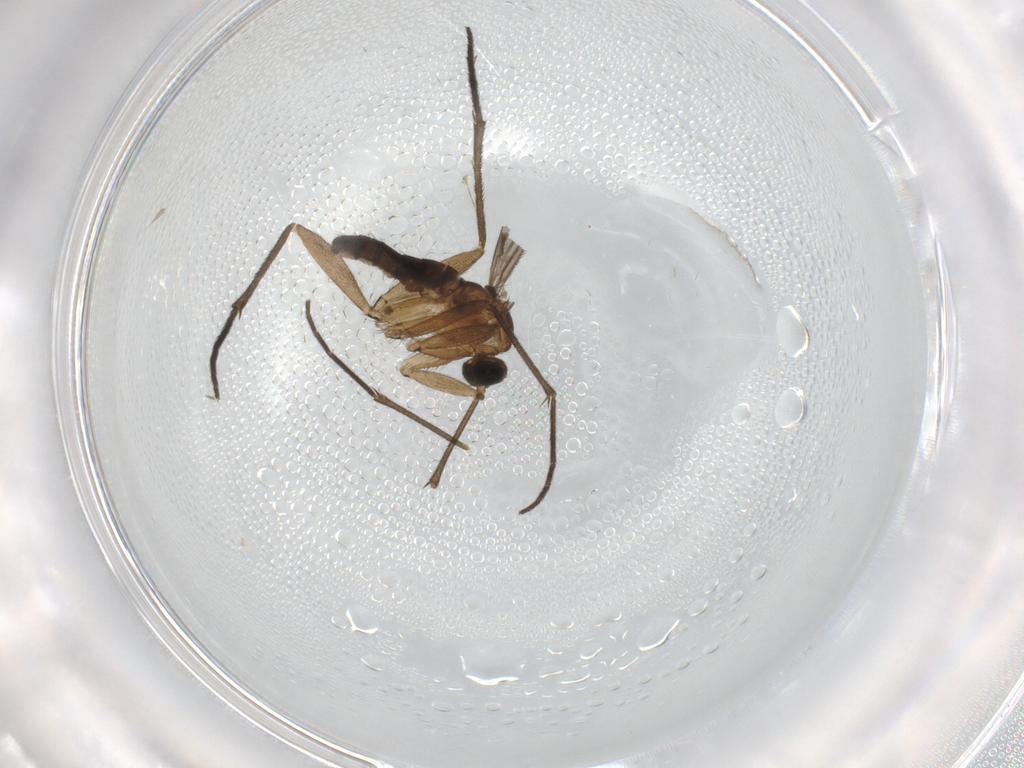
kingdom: Animalia
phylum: Arthropoda
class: Insecta
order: Diptera
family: Sciaridae
